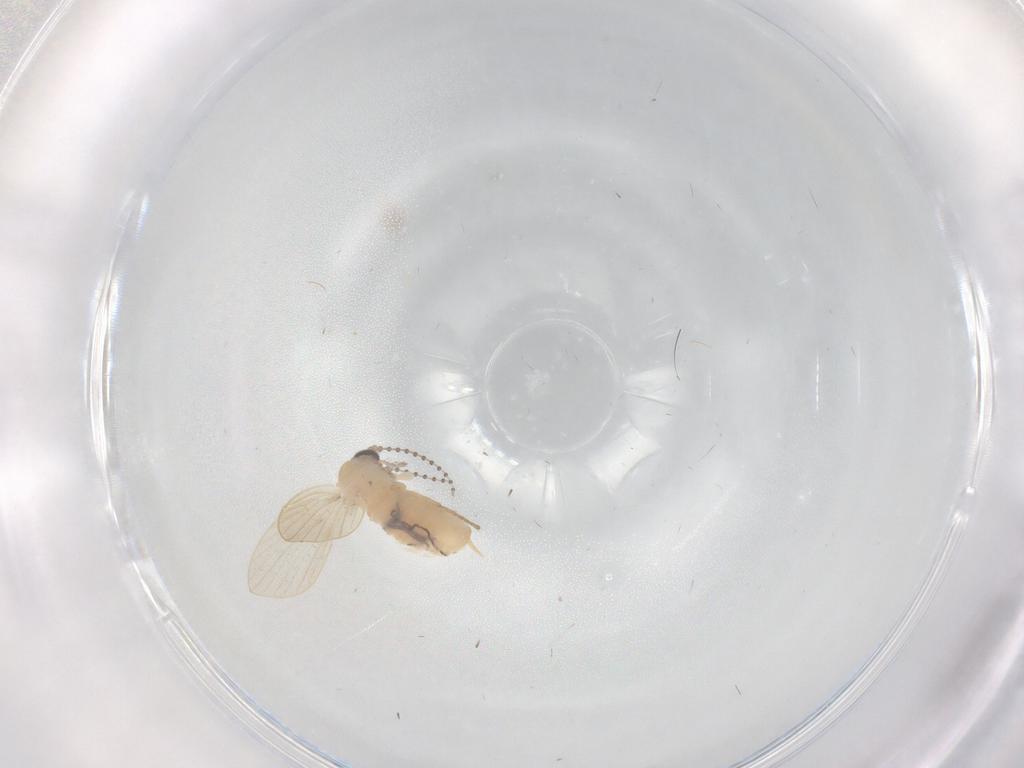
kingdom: Animalia
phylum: Arthropoda
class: Insecta
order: Diptera
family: Psychodidae
